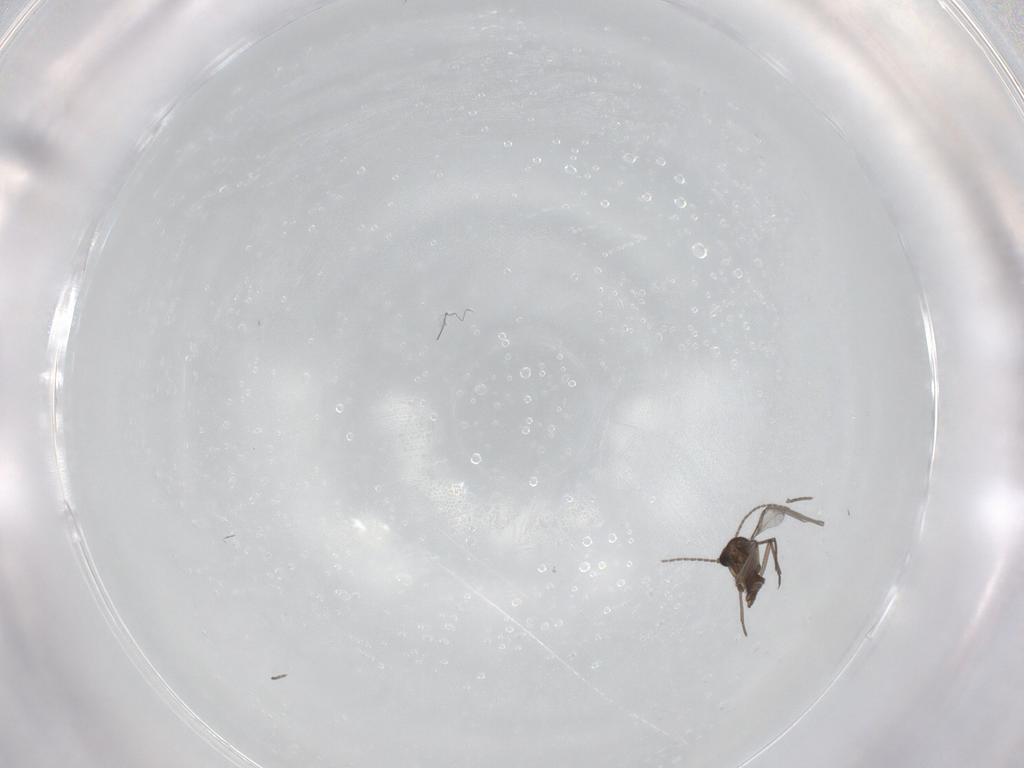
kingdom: Animalia
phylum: Arthropoda
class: Insecta
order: Diptera
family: Sciaridae
